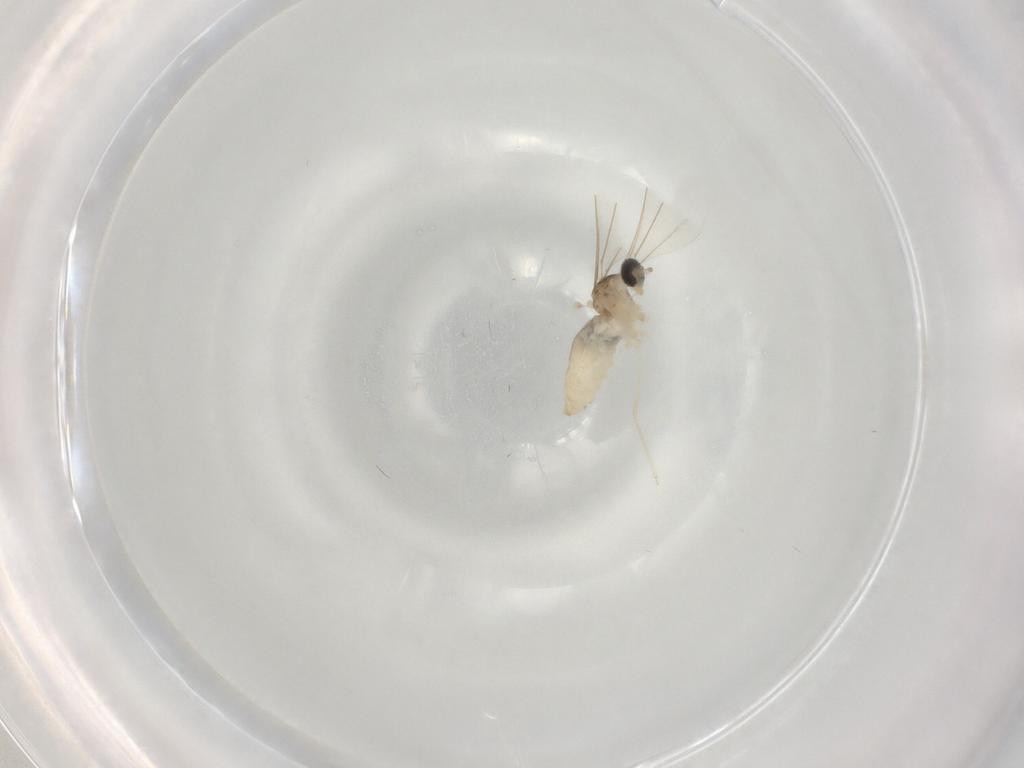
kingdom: Animalia
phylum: Arthropoda
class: Insecta
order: Diptera
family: Cecidomyiidae
